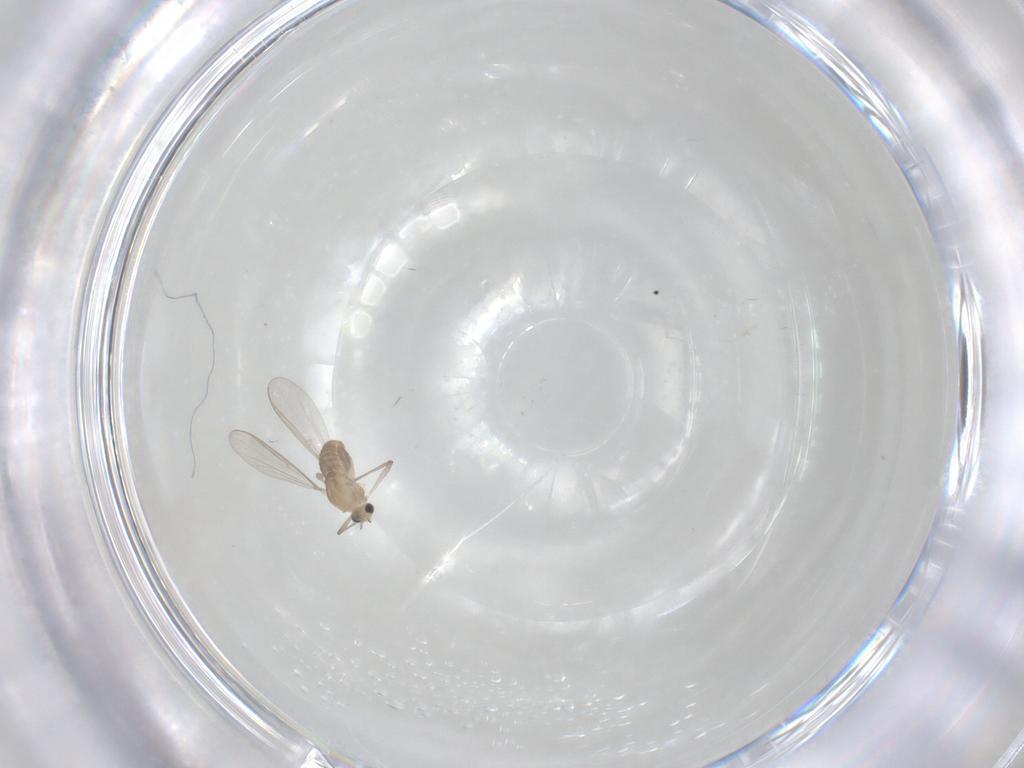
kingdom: Animalia
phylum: Arthropoda
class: Insecta
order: Diptera
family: Chironomidae
